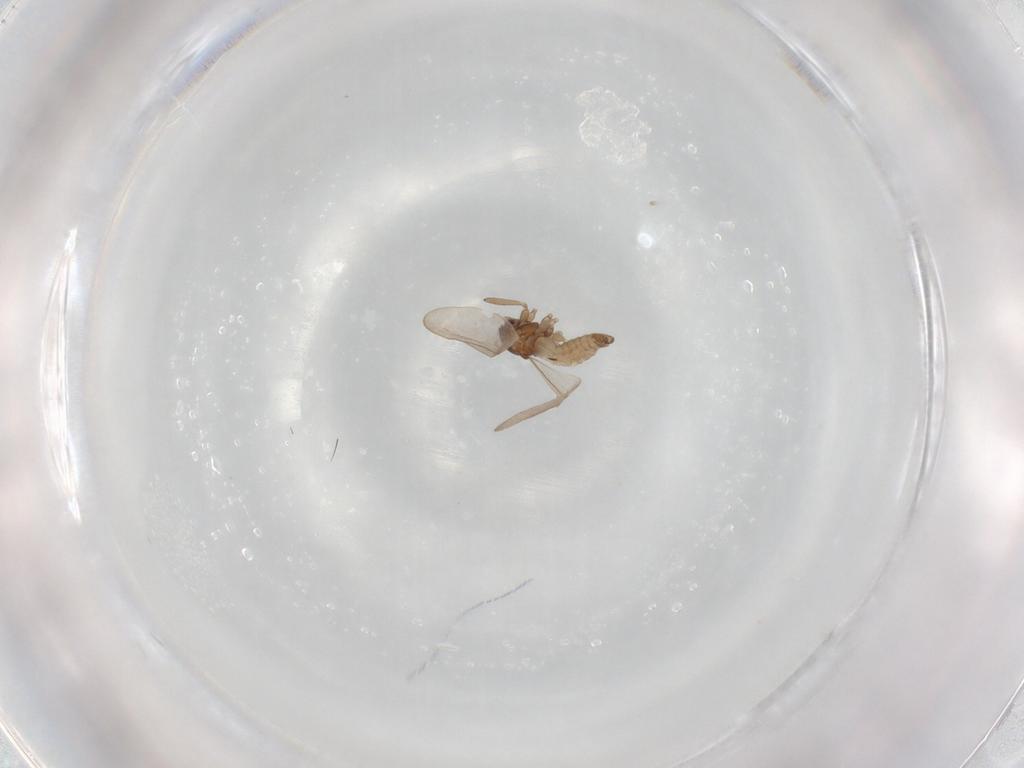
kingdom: Animalia
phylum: Arthropoda
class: Insecta
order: Diptera
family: Cecidomyiidae
